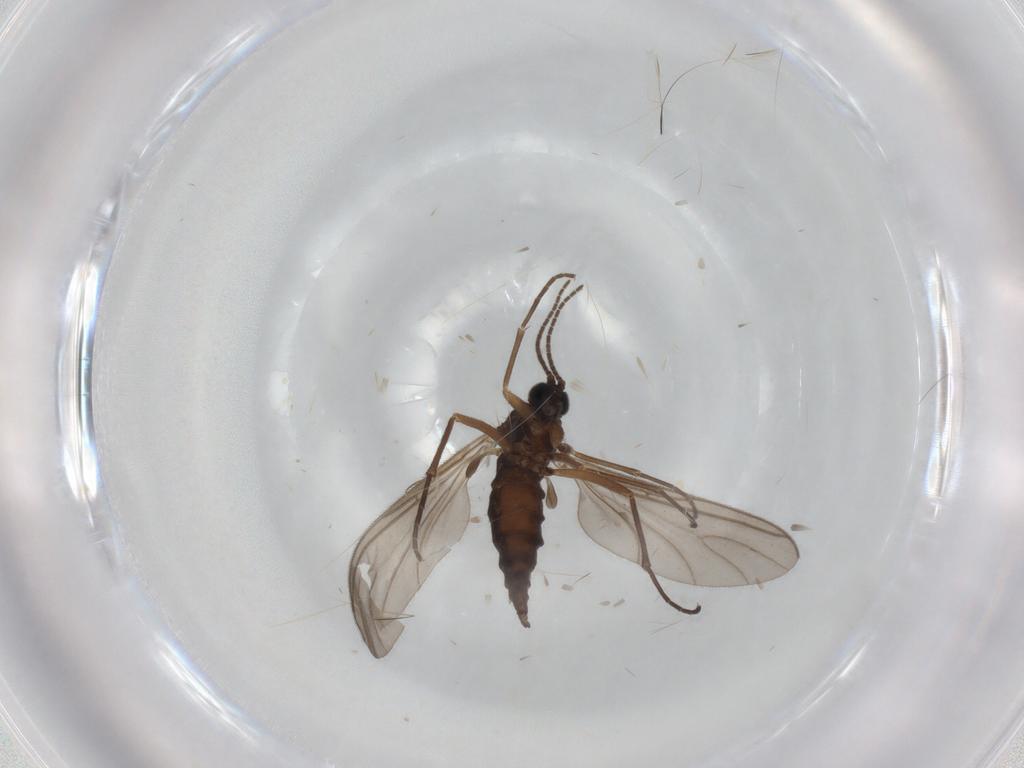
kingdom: Animalia
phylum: Arthropoda
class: Insecta
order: Diptera
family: Sciaridae
